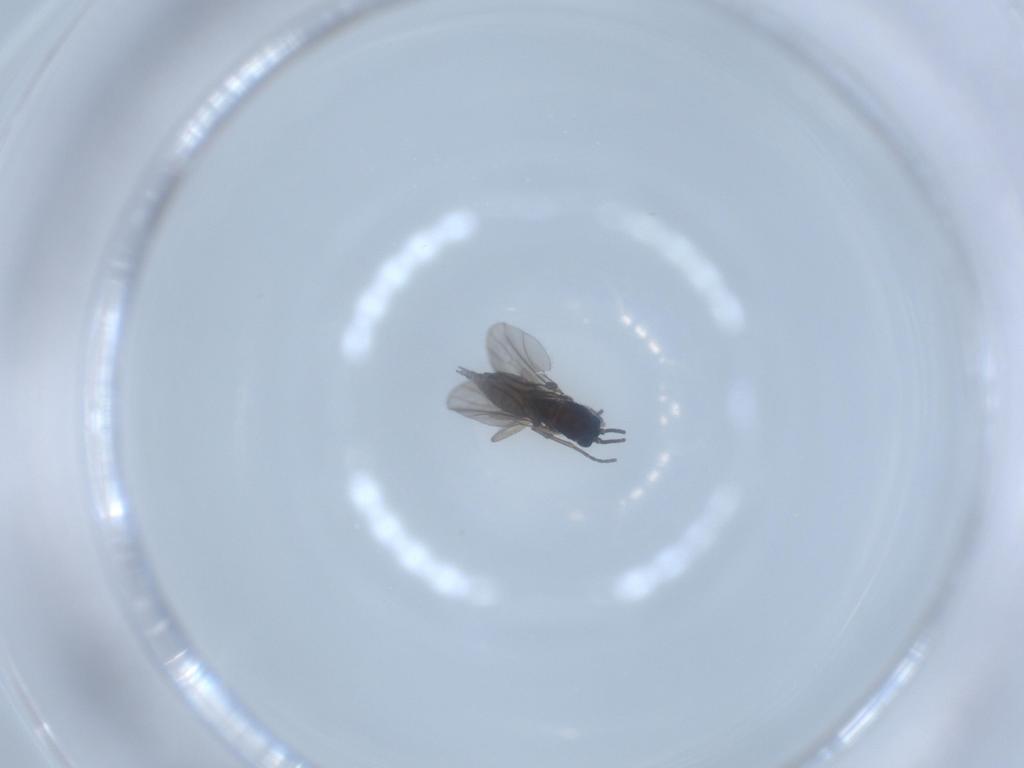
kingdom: Animalia
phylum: Arthropoda
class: Insecta
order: Diptera
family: Sciaridae
